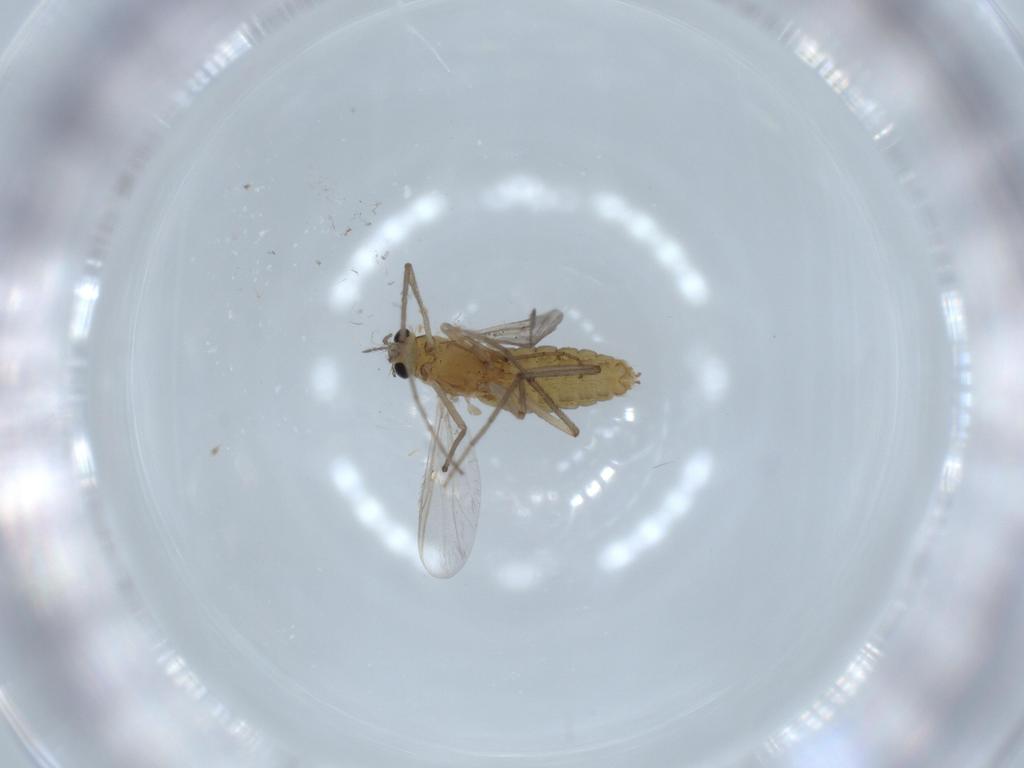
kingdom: Animalia
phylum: Arthropoda
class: Insecta
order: Diptera
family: Chironomidae
